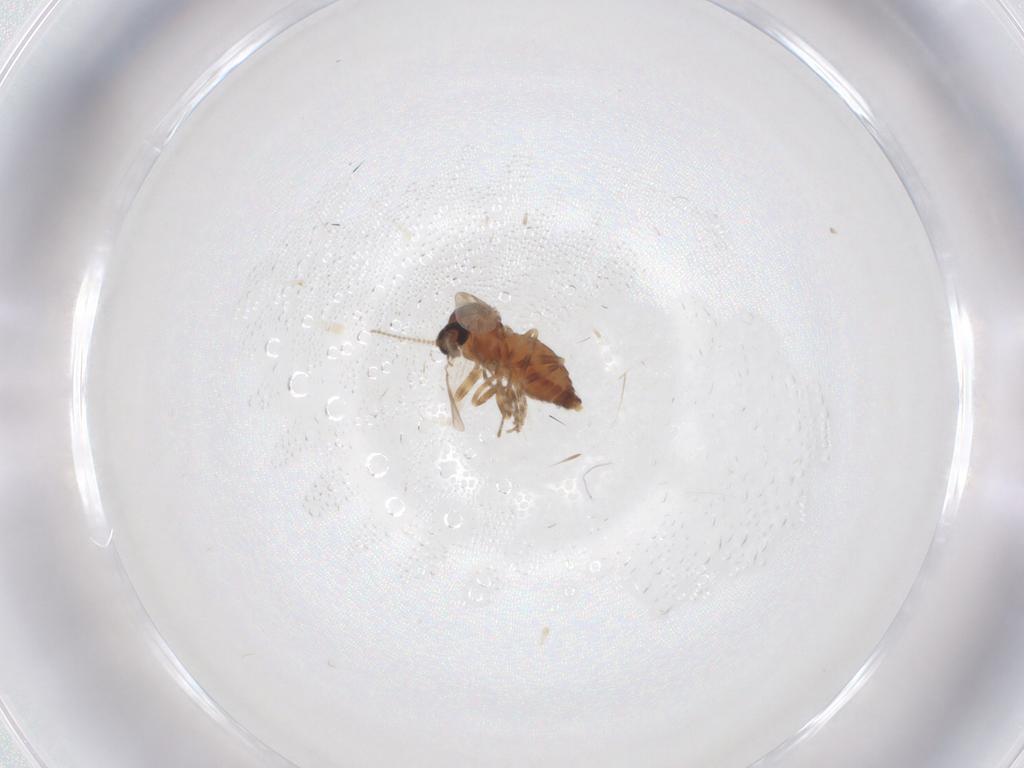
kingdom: Animalia
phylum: Arthropoda
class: Insecta
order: Diptera
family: Ceratopogonidae
